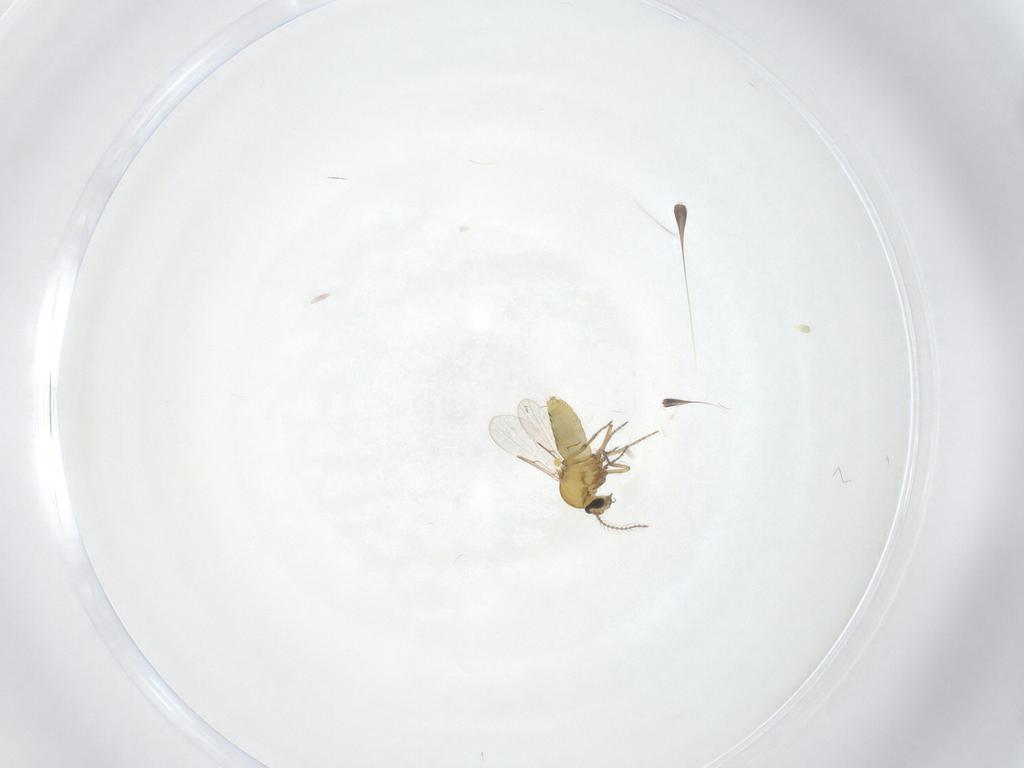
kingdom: Animalia
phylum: Arthropoda
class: Insecta
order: Diptera
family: Ceratopogonidae
